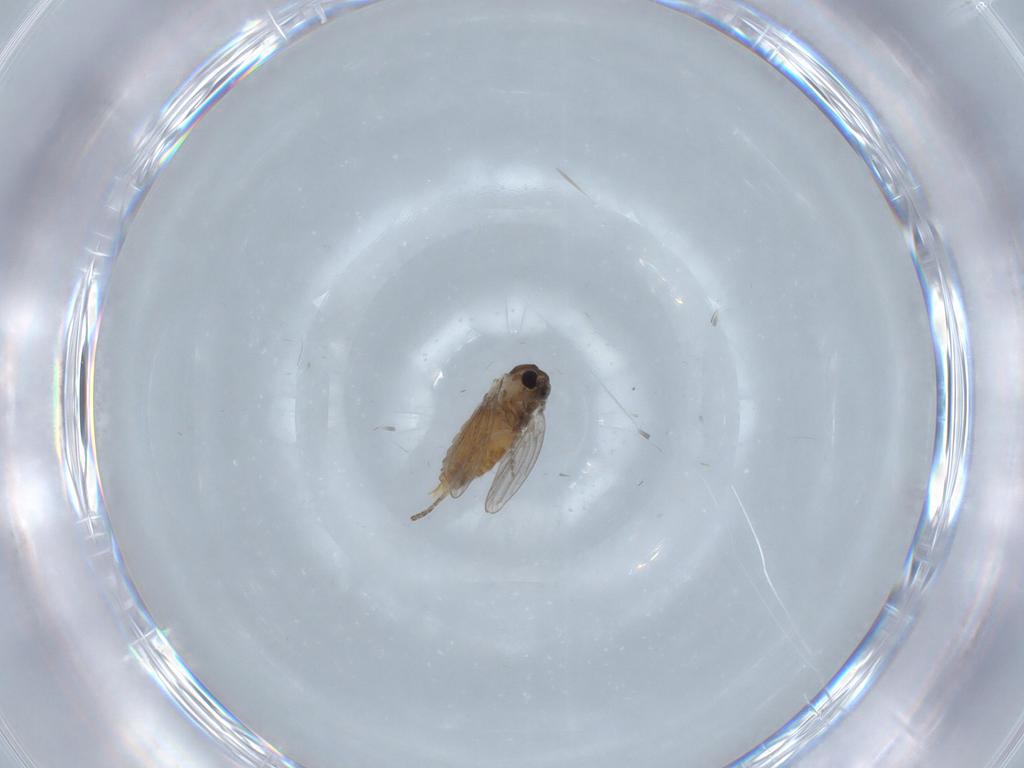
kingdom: Animalia
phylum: Arthropoda
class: Insecta
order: Diptera
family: Psychodidae
